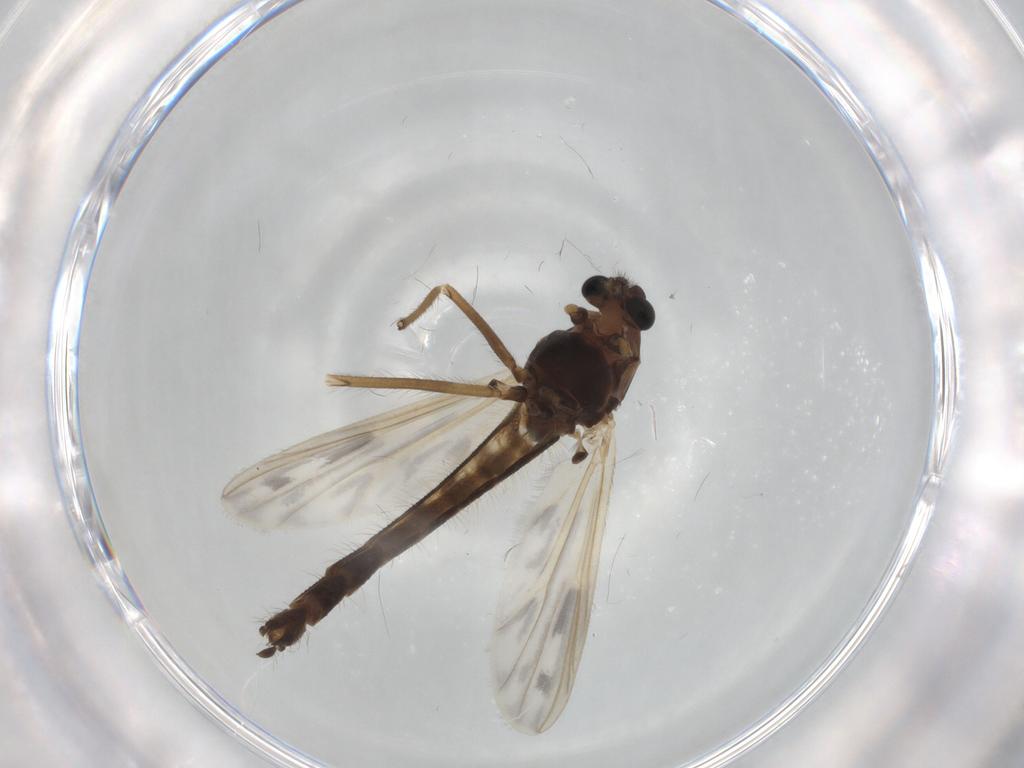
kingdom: Animalia
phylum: Arthropoda
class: Insecta
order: Diptera
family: Chironomidae
